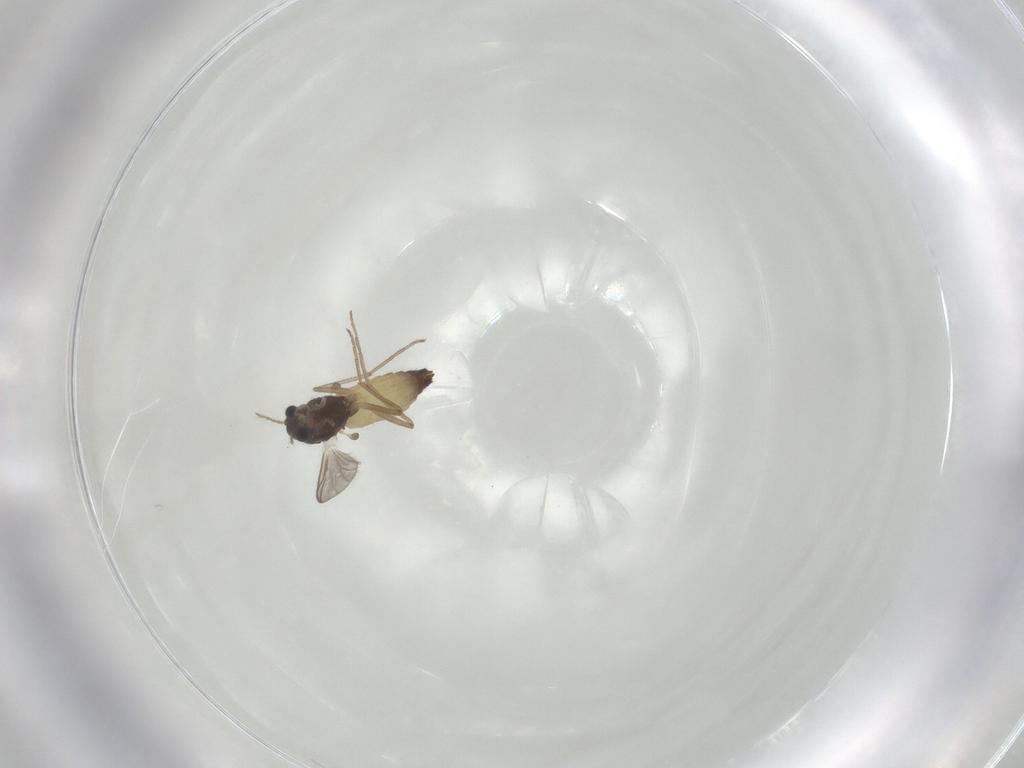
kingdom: Animalia
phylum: Arthropoda
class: Insecta
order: Diptera
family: Chironomidae
